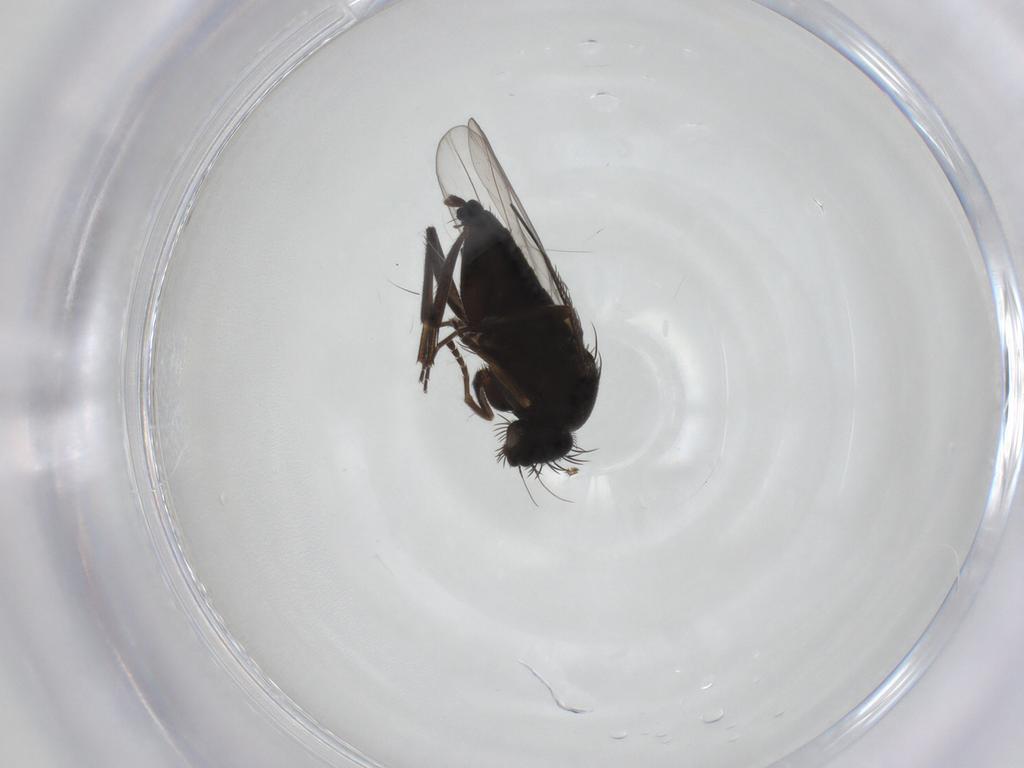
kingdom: Animalia
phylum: Arthropoda
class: Insecta
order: Diptera
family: Phoridae
